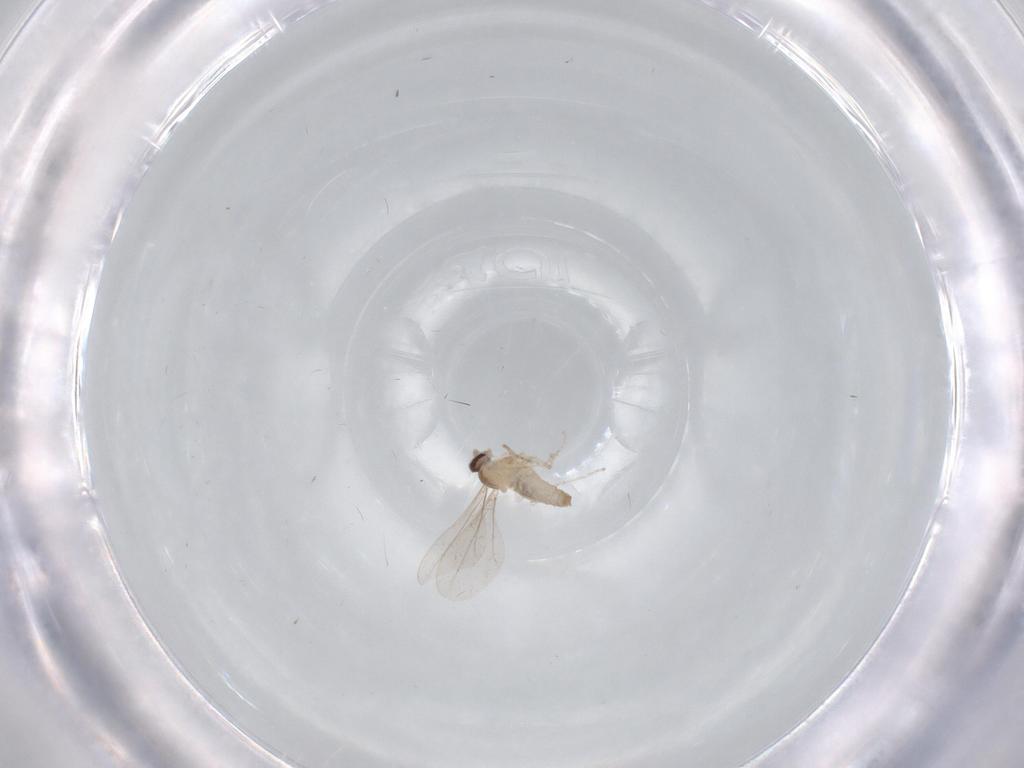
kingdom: Animalia
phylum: Arthropoda
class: Insecta
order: Diptera
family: Cecidomyiidae
